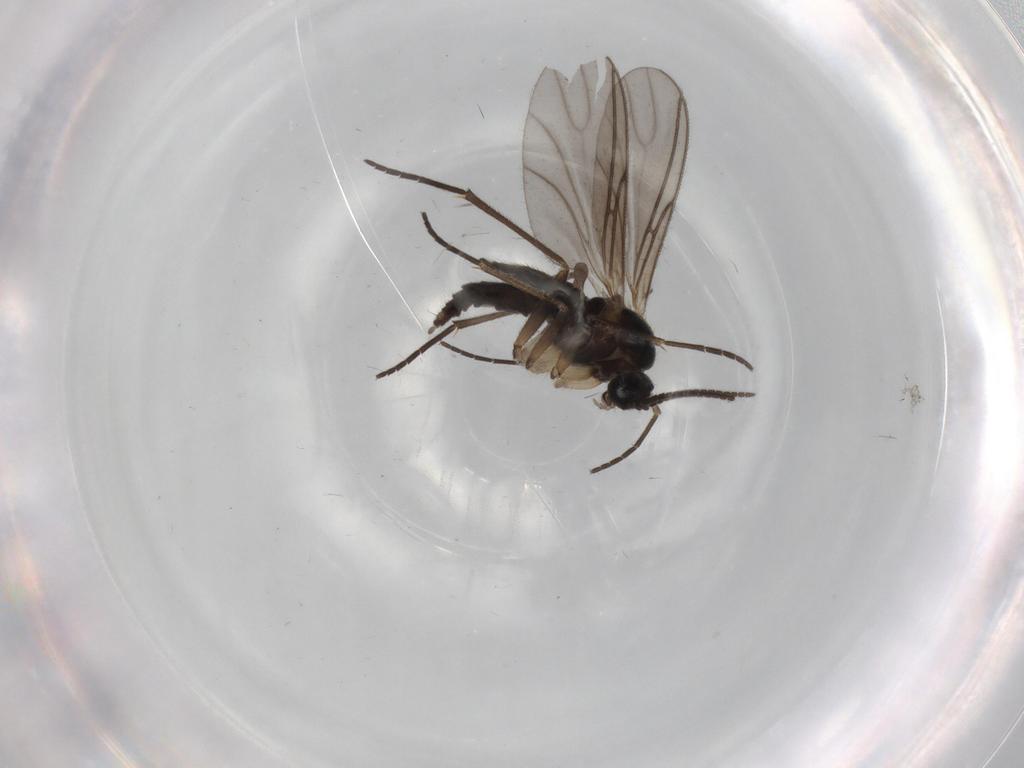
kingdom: Animalia
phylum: Arthropoda
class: Insecta
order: Diptera
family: Sciaridae
